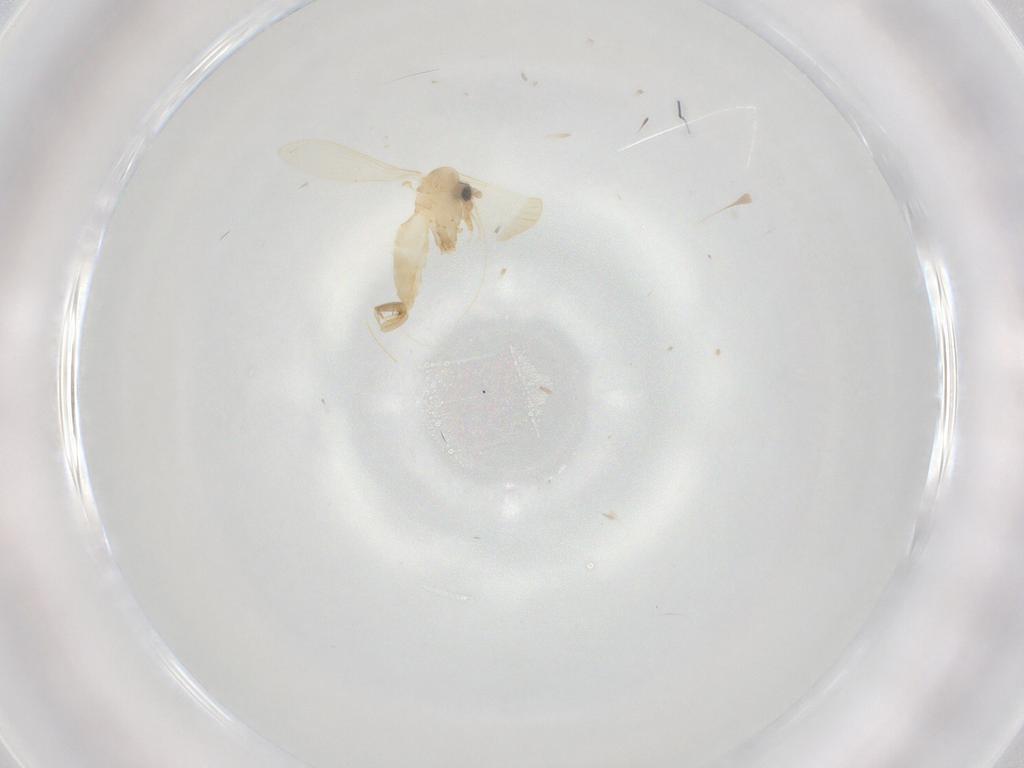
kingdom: Animalia
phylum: Arthropoda
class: Insecta
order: Diptera
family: Psychodidae
